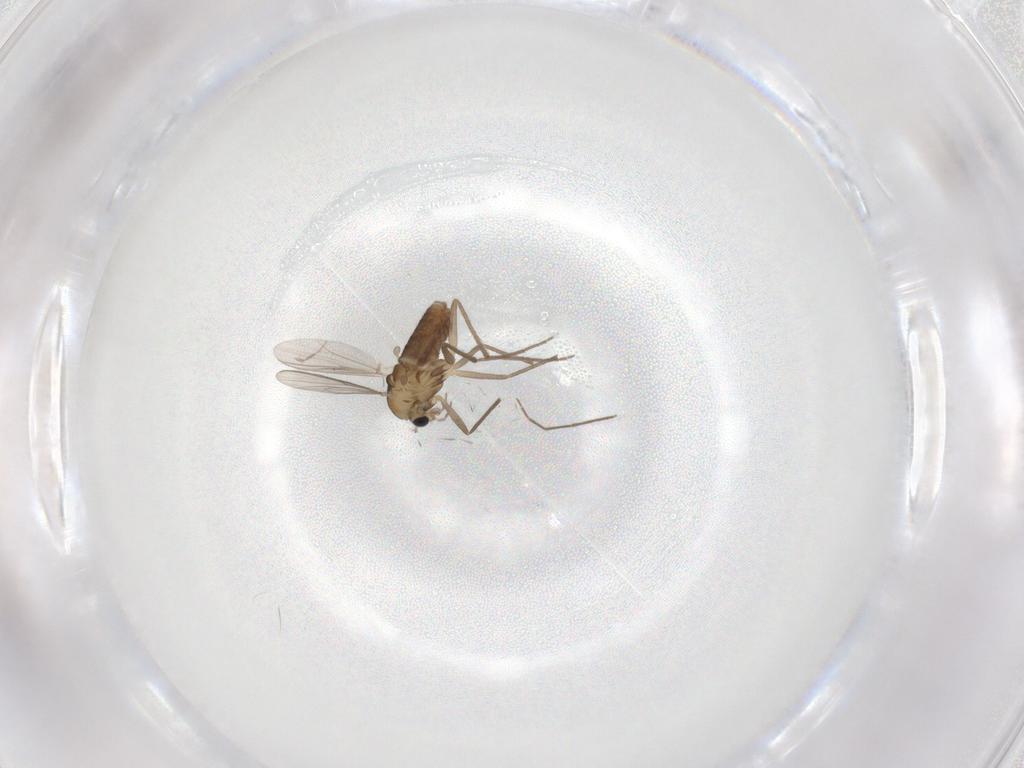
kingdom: Animalia
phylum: Arthropoda
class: Insecta
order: Diptera
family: Chironomidae
